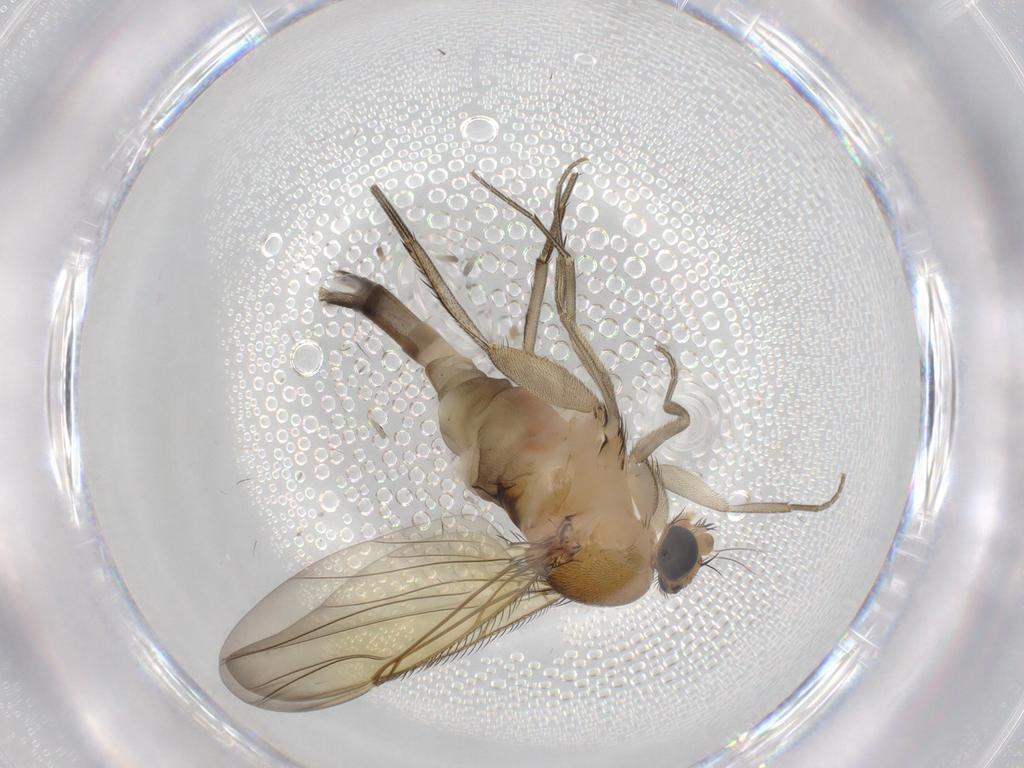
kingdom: Animalia
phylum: Arthropoda
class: Insecta
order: Diptera
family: Phoridae
